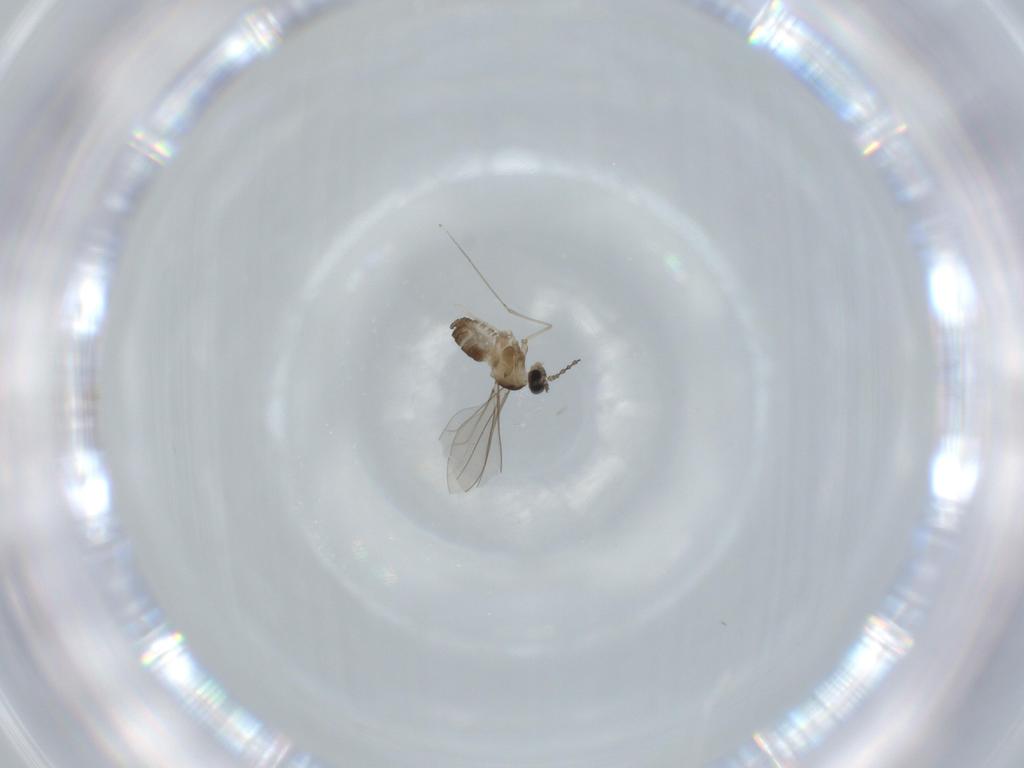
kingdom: Animalia
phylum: Arthropoda
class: Insecta
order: Diptera
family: Cecidomyiidae
